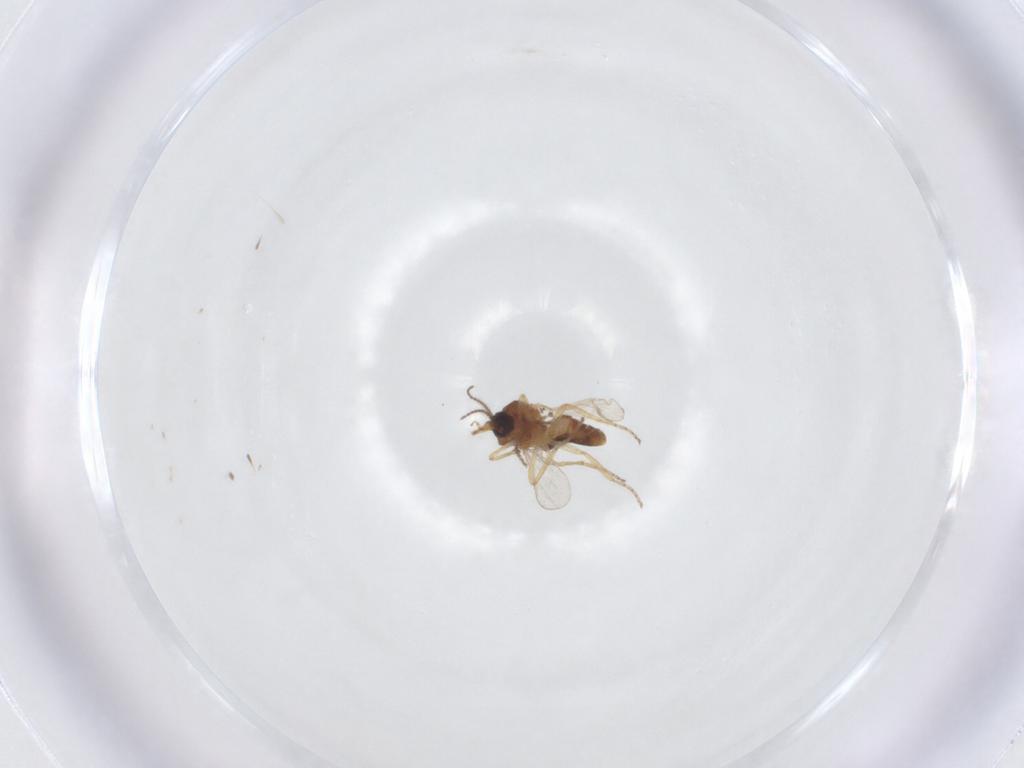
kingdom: Animalia
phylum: Arthropoda
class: Insecta
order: Diptera
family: Ceratopogonidae
